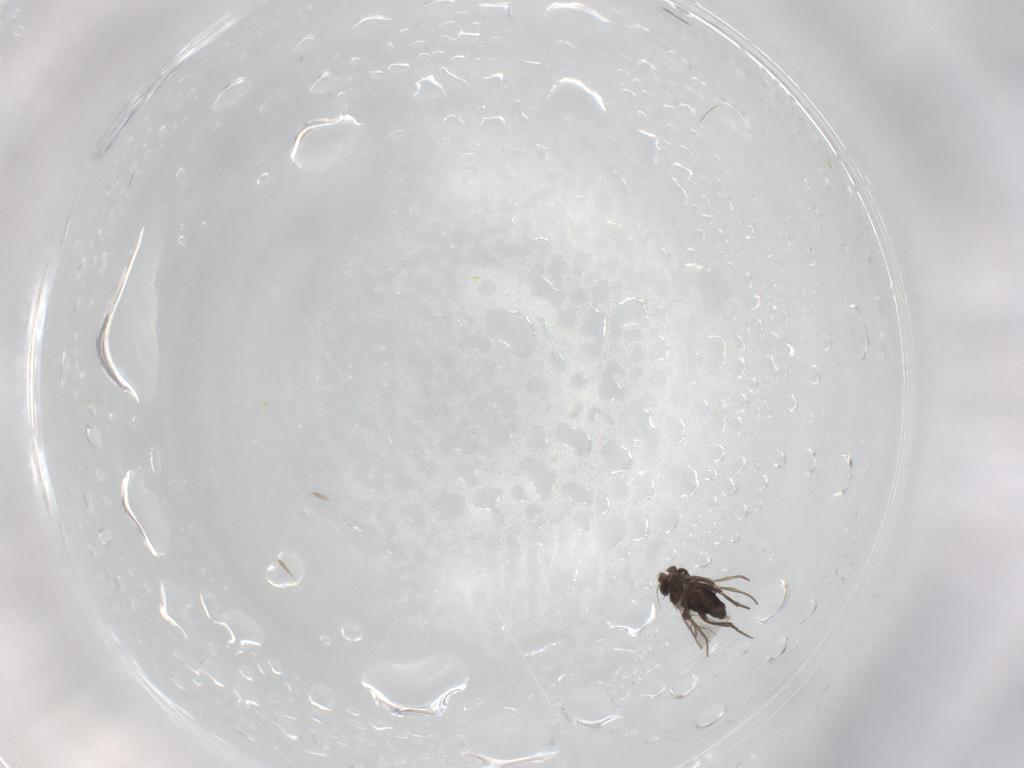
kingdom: Animalia
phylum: Arthropoda
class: Insecta
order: Diptera
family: Phoridae
